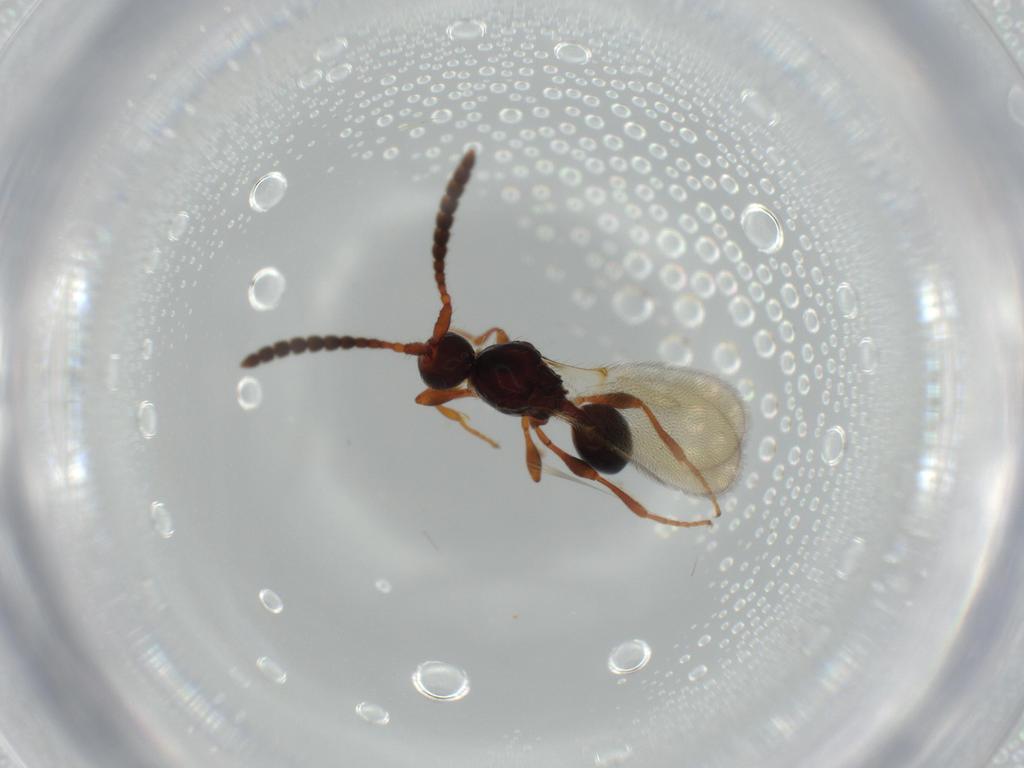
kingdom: Animalia
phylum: Arthropoda
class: Insecta
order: Hymenoptera
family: Diapriidae
